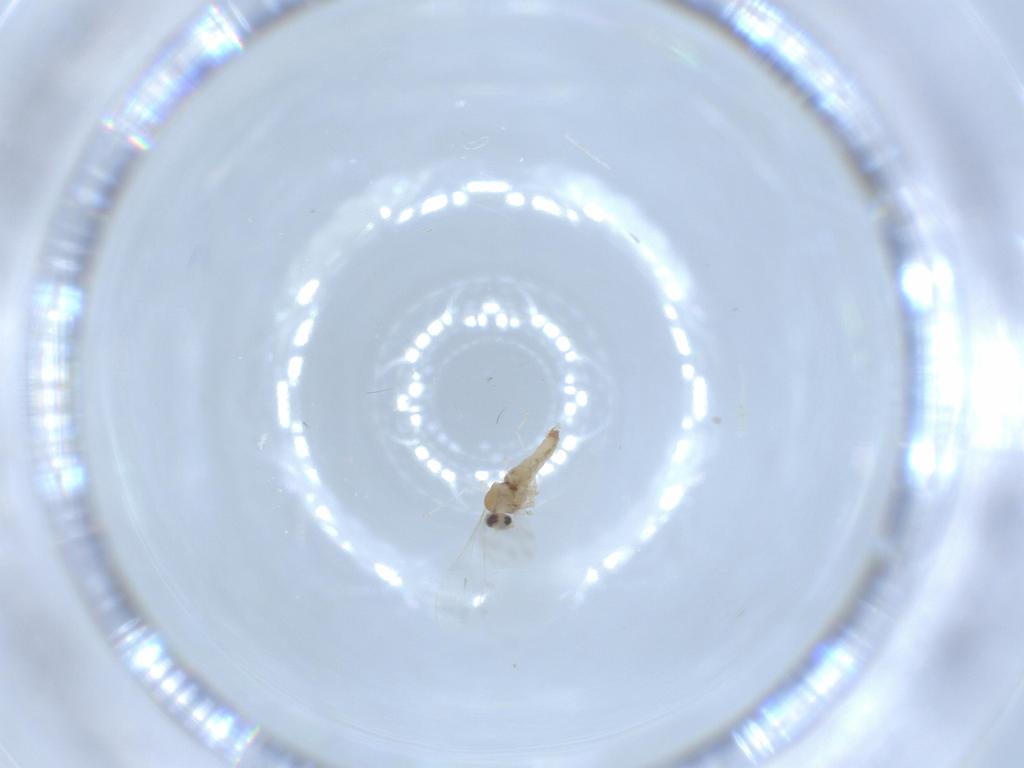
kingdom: Animalia
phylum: Arthropoda
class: Insecta
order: Diptera
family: Cecidomyiidae
